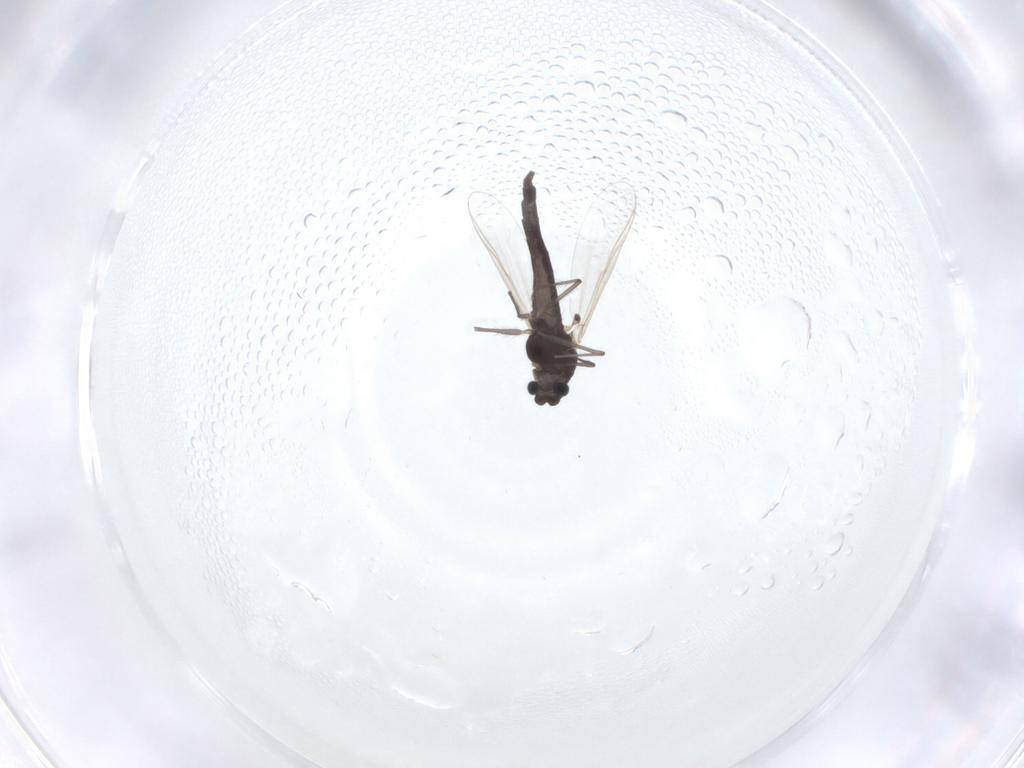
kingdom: Animalia
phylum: Arthropoda
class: Insecta
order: Diptera
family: Chironomidae
